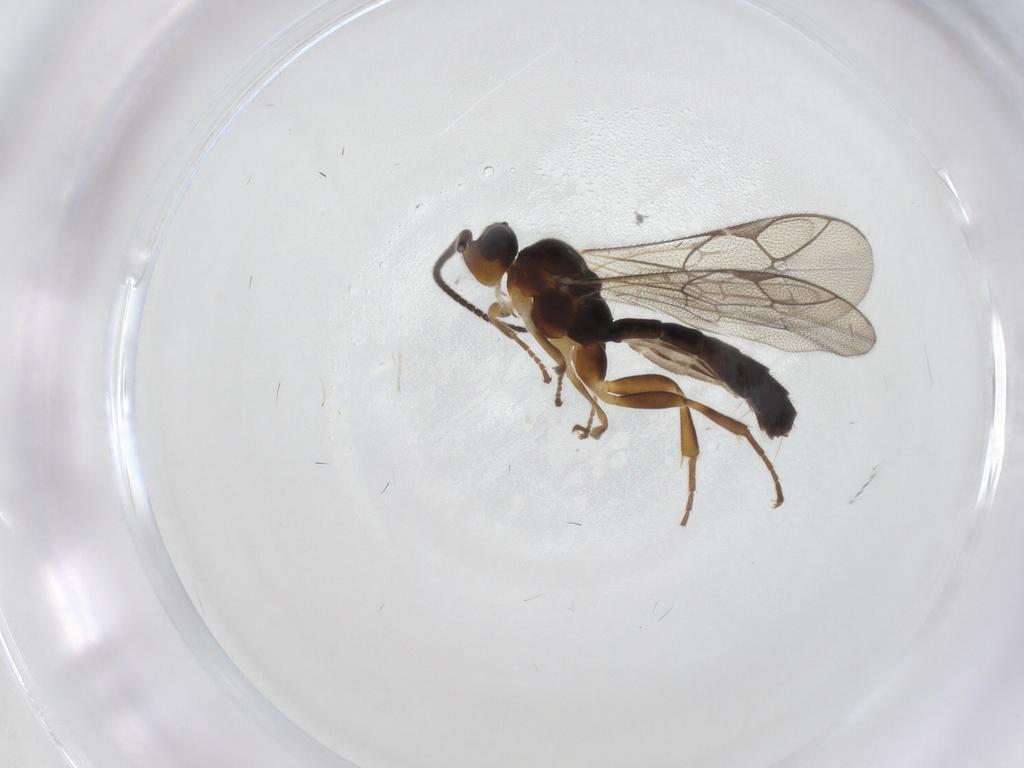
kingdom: Animalia
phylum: Arthropoda
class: Insecta
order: Hymenoptera
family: Ichneumonidae
